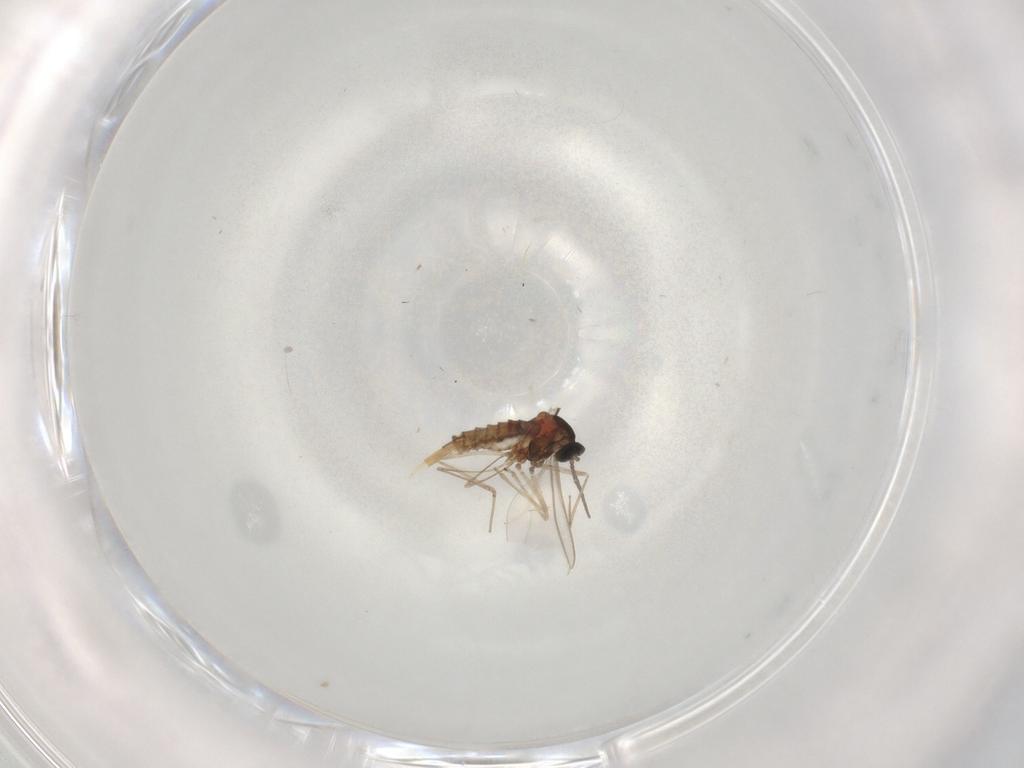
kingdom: Animalia
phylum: Arthropoda
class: Insecta
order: Diptera
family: Cecidomyiidae
